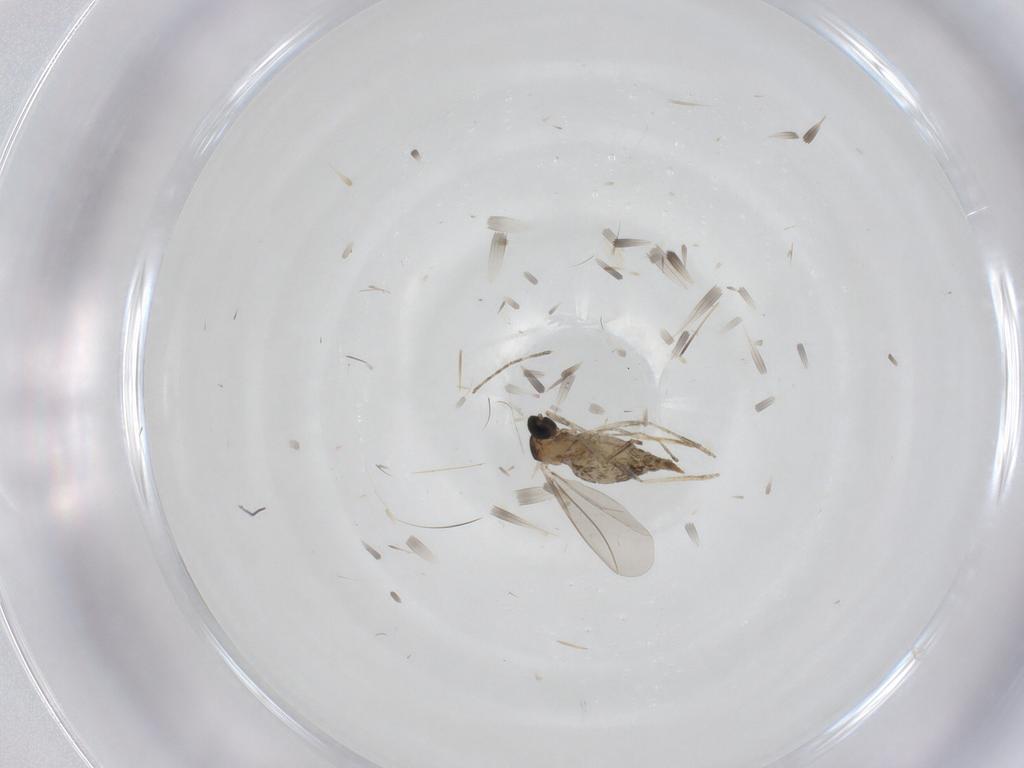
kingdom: Animalia
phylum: Arthropoda
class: Insecta
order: Diptera
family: Cecidomyiidae
